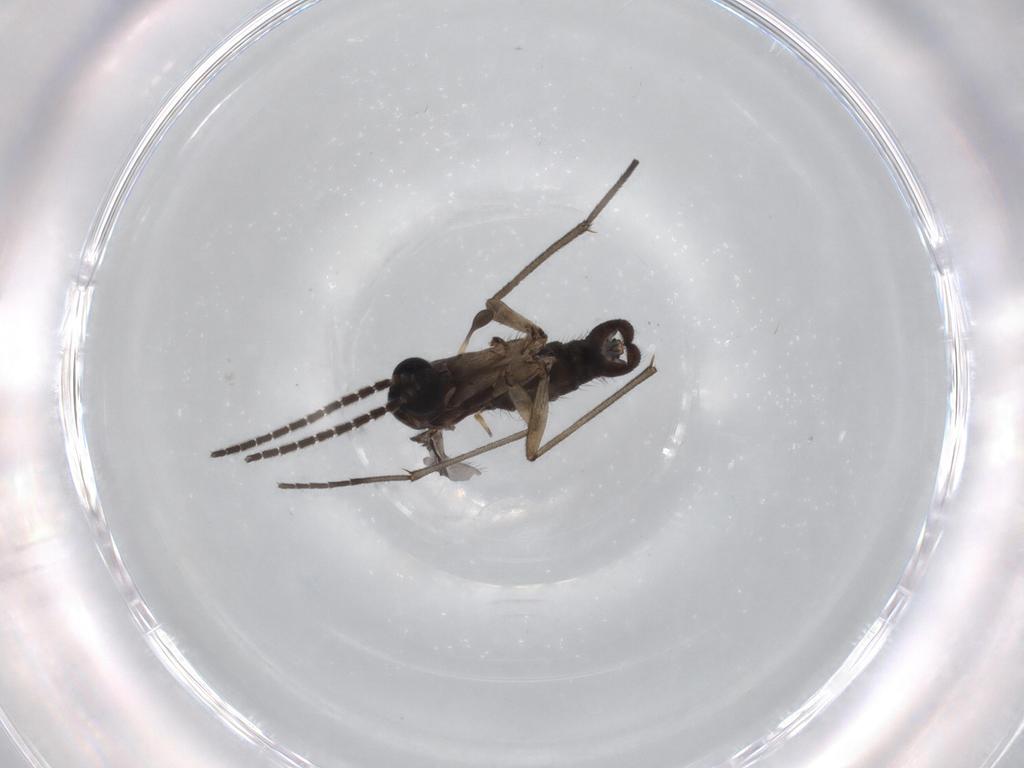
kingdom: Animalia
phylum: Arthropoda
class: Insecta
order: Diptera
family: Sciaridae
